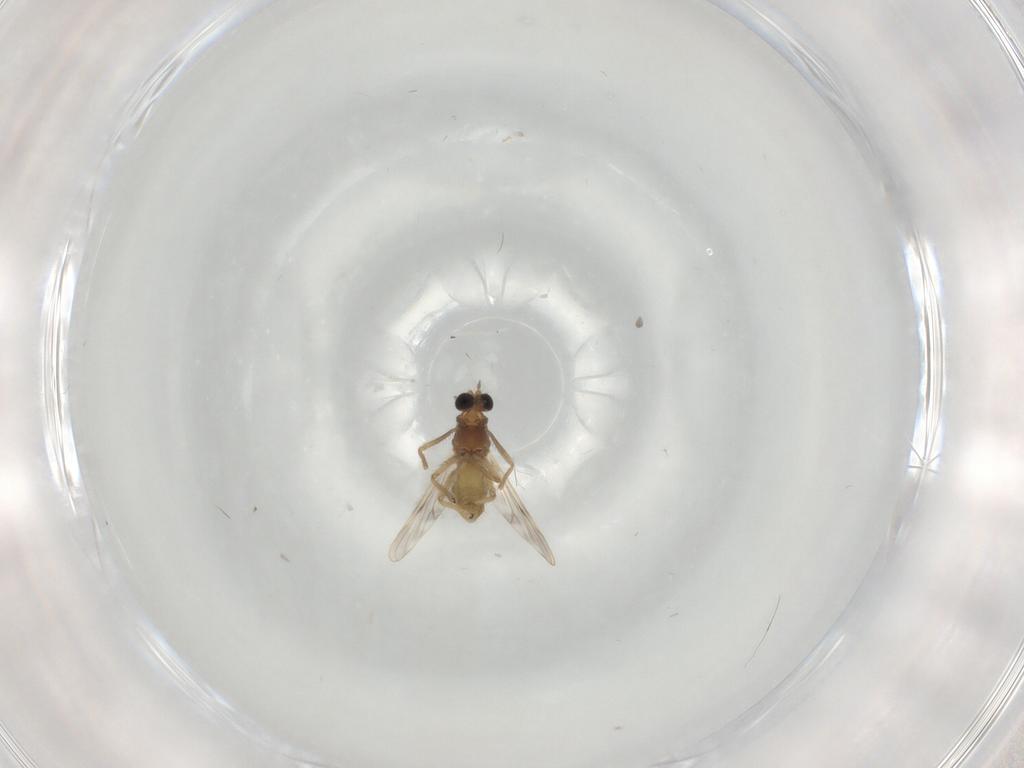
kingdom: Animalia
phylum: Arthropoda
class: Insecta
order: Diptera
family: Chironomidae
